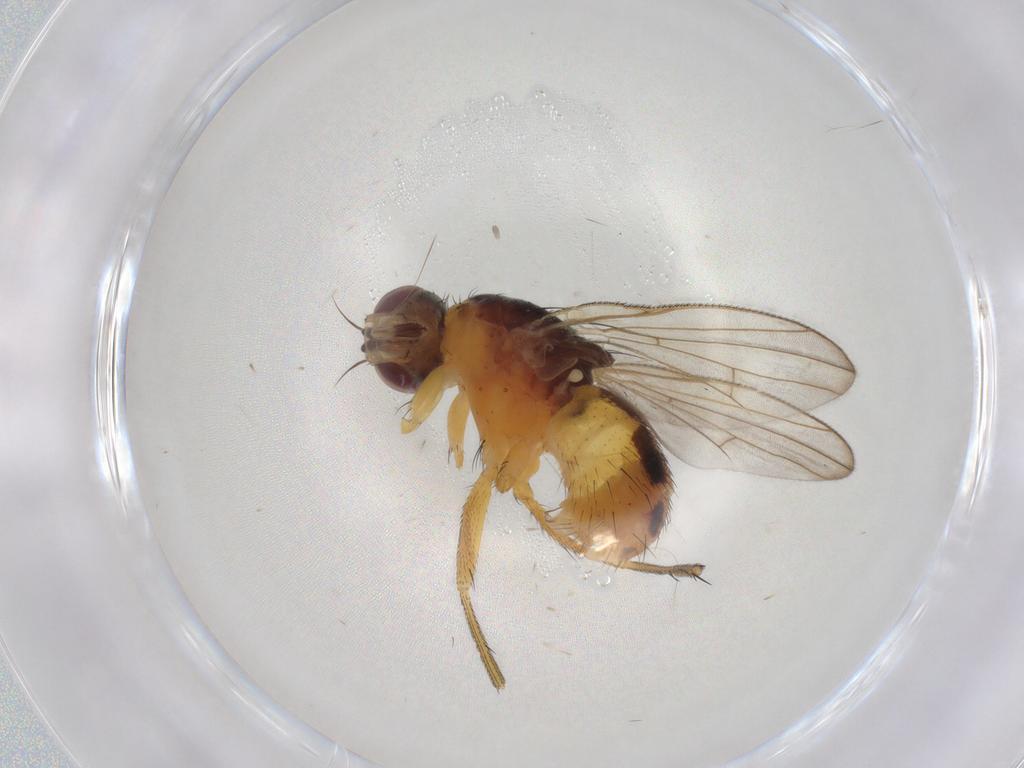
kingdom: Animalia
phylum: Arthropoda
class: Insecta
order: Diptera
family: Muscidae
